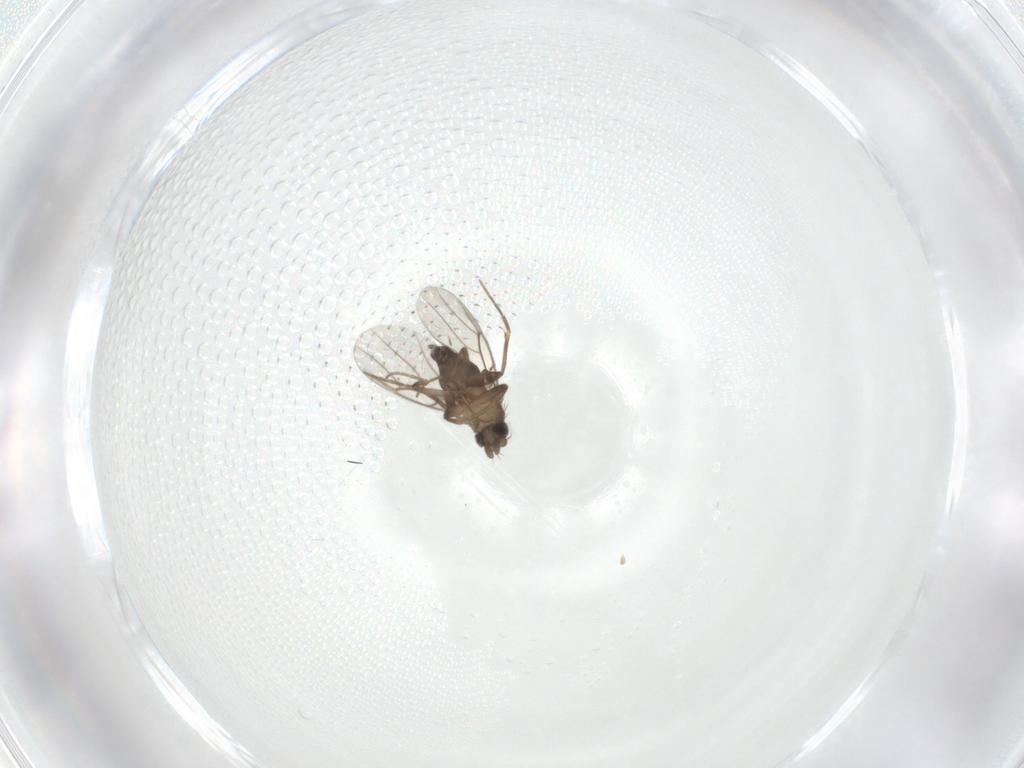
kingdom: Animalia
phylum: Arthropoda
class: Insecta
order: Diptera
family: Phoridae
